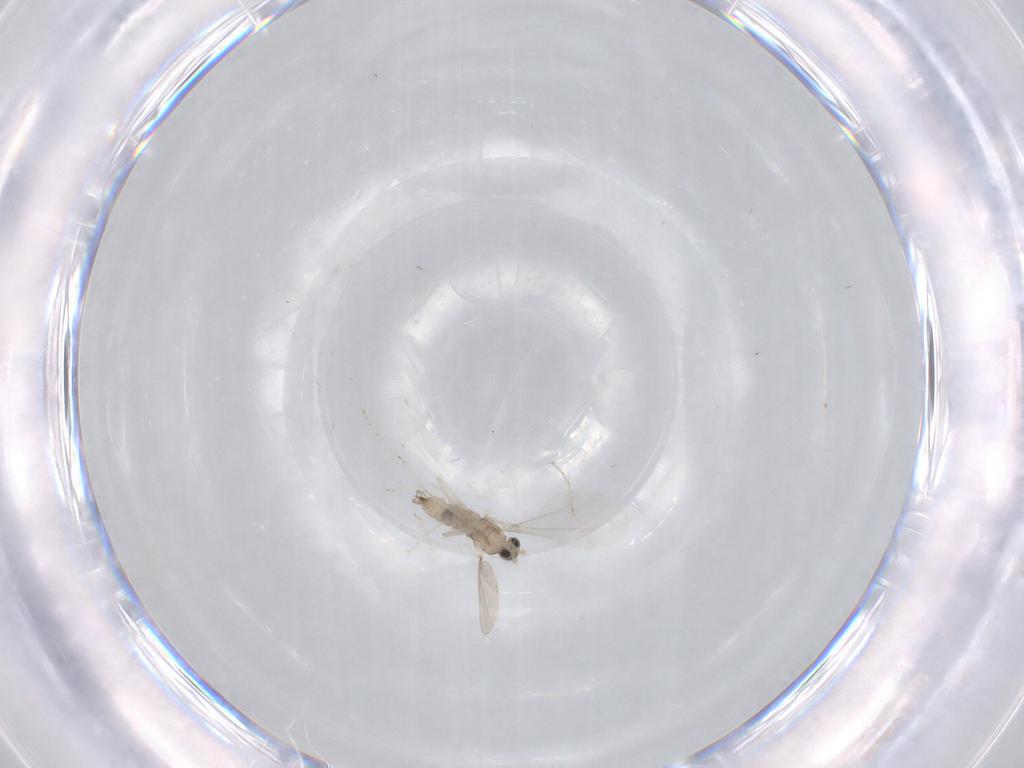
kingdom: Animalia
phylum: Arthropoda
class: Insecta
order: Diptera
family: Cecidomyiidae
